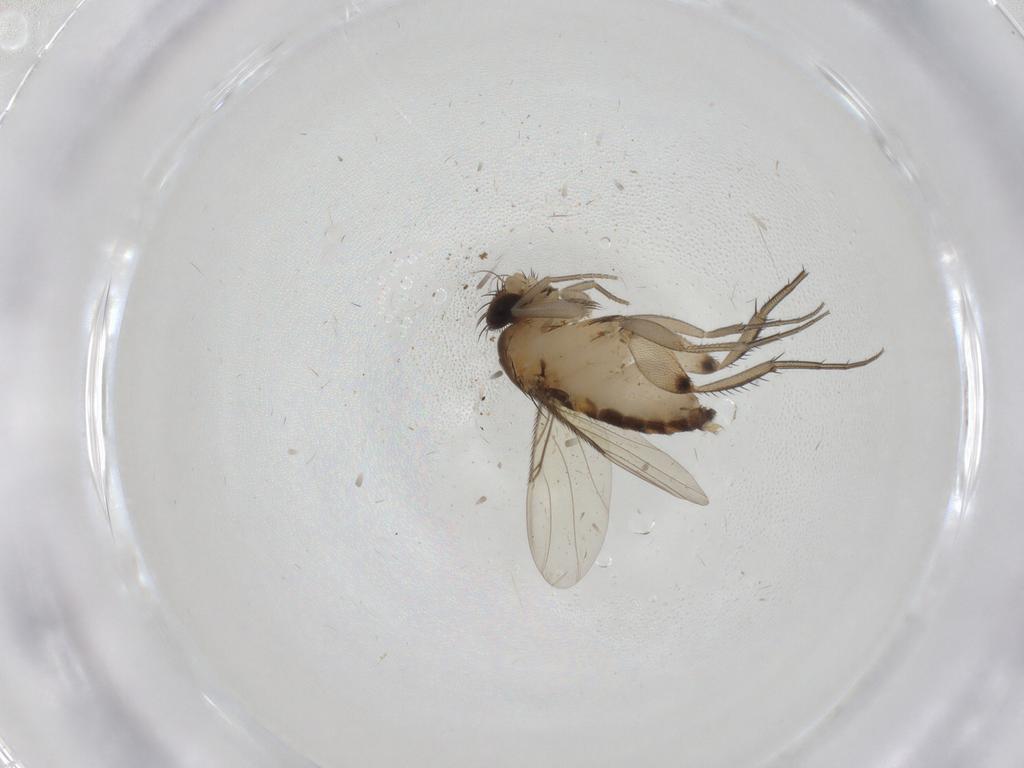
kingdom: Animalia
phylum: Arthropoda
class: Insecta
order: Diptera
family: Phoridae
